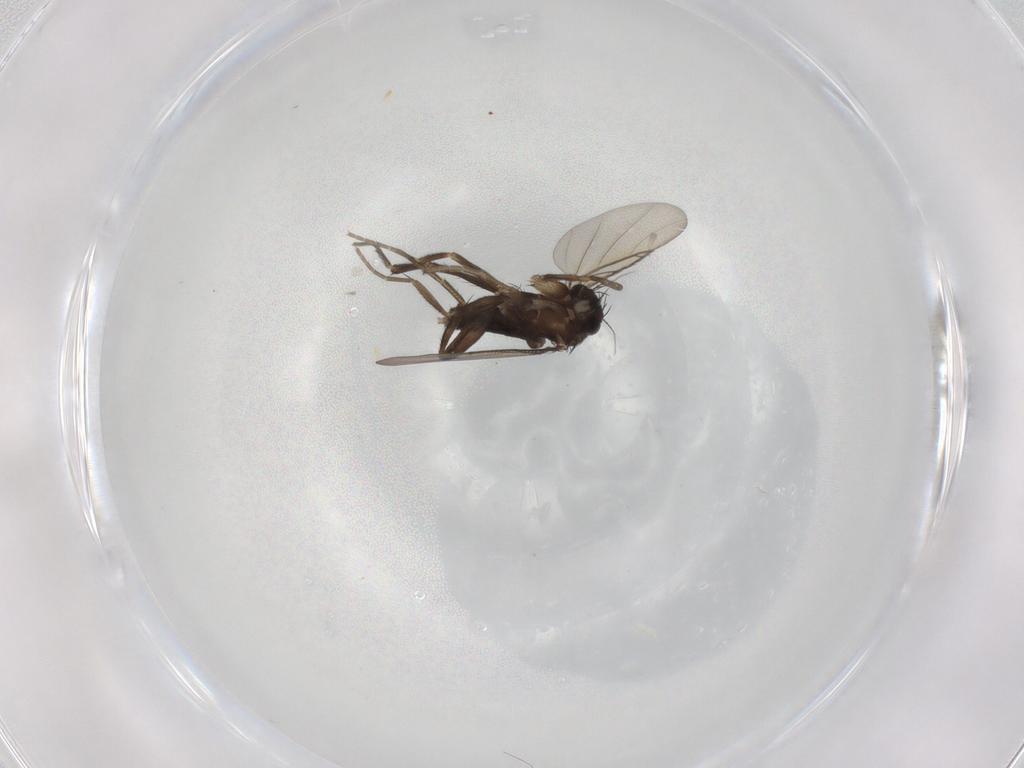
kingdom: Animalia
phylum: Arthropoda
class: Insecta
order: Diptera
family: Phoridae
